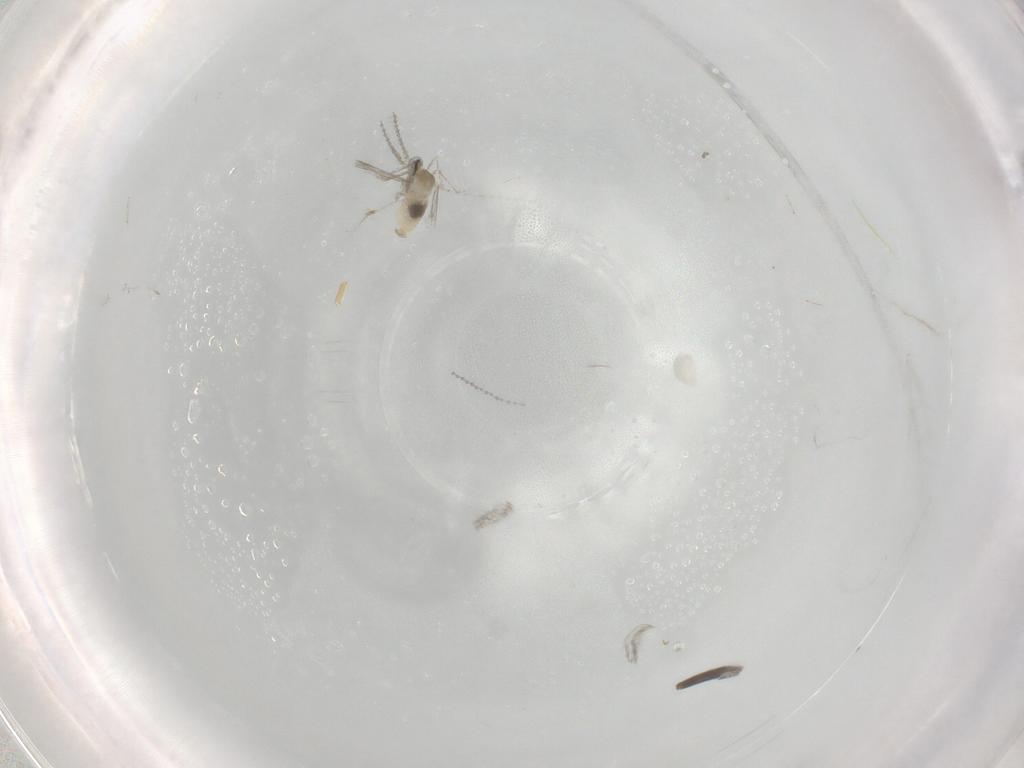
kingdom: Animalia
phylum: Arthropoda
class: Insecta
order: Diptera
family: Cecidomyiidae
